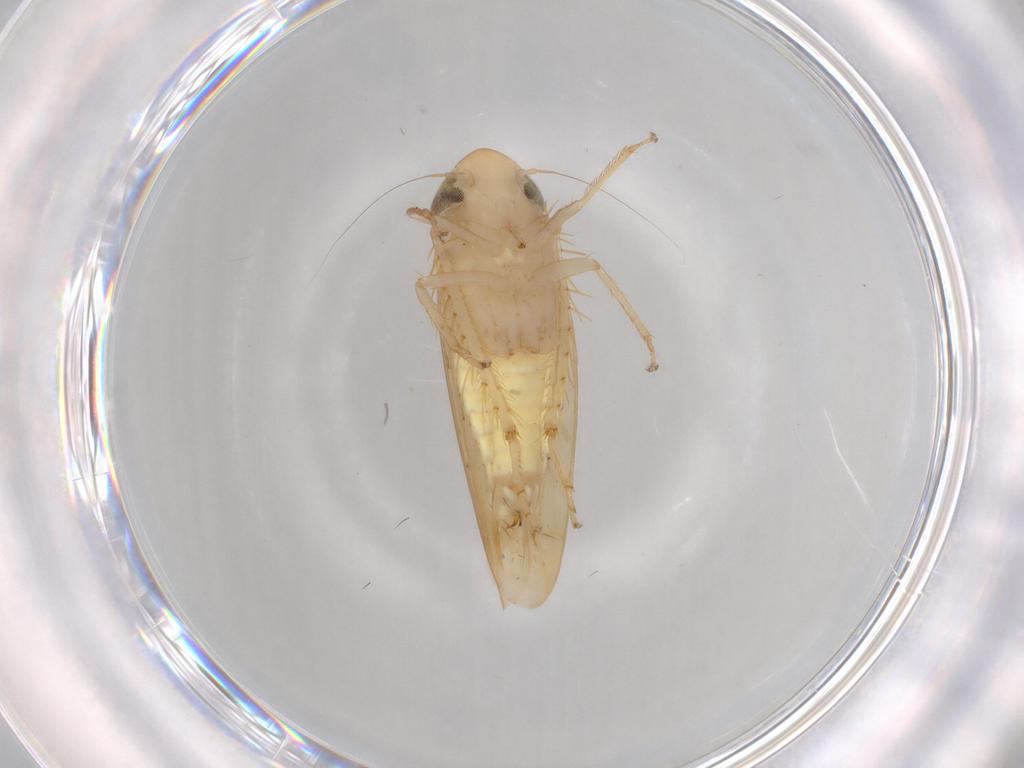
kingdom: Animalia
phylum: Arthropoda
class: Insecta
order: Hemiptera
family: Cicadellidae
